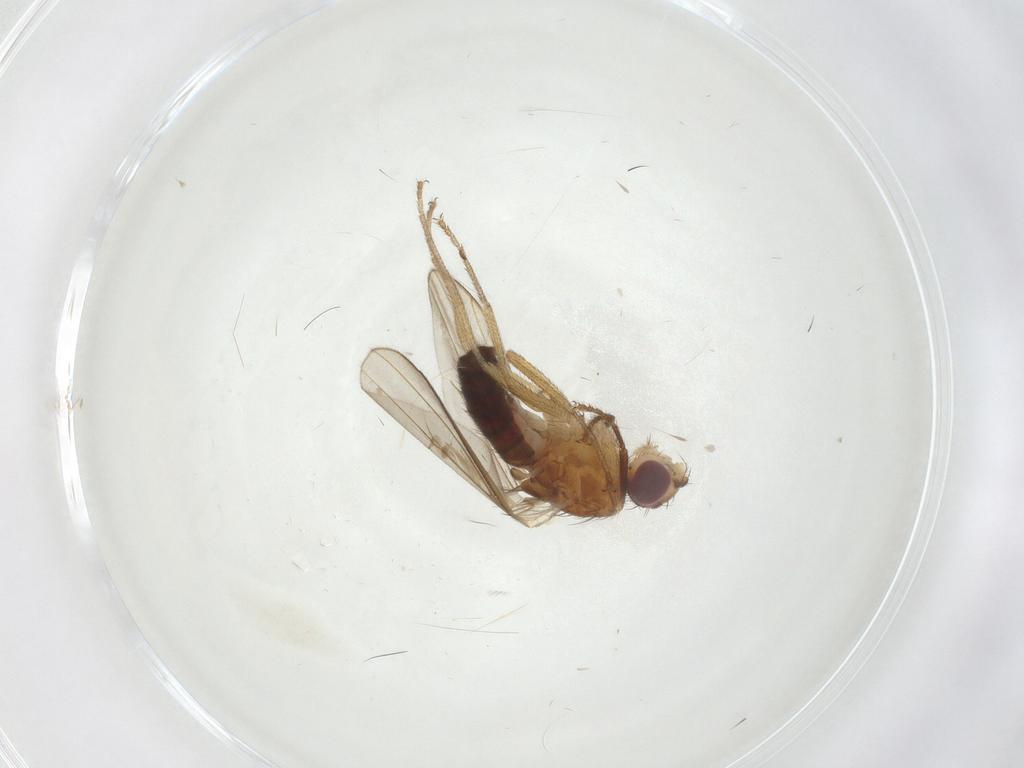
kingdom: Animalia
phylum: Arthropoda
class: Insecta
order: Diptera
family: Drosophilidae
